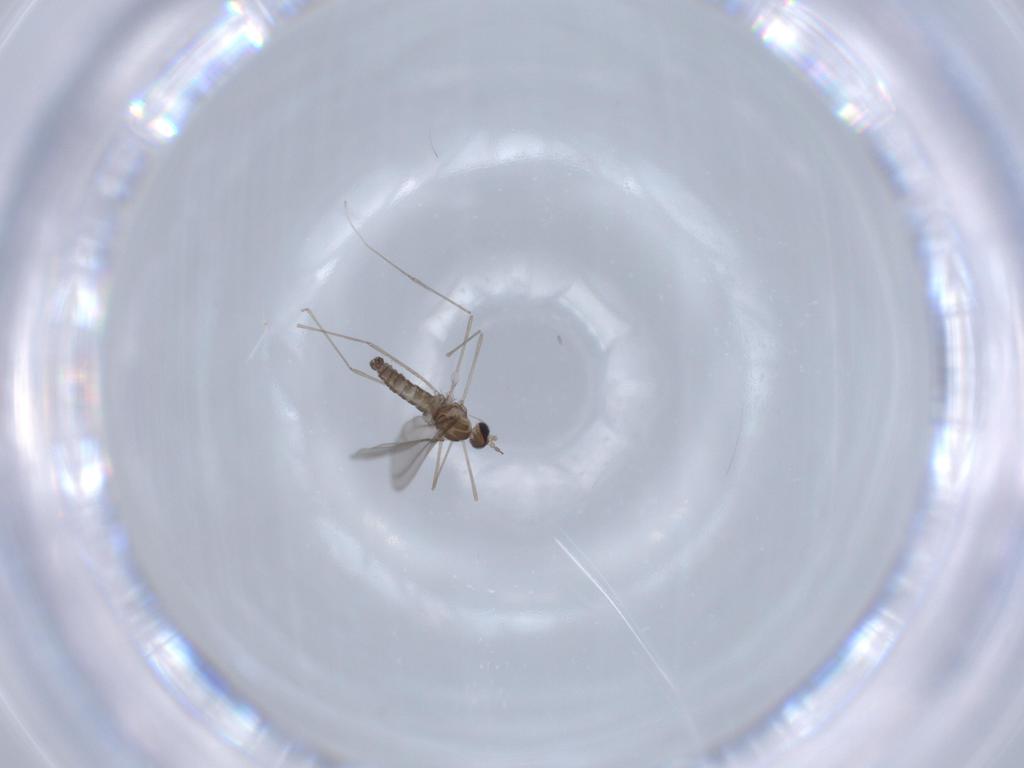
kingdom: Animalia
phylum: Arthropoda
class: Insecta
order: Diptera
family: Cecidomyiidae
